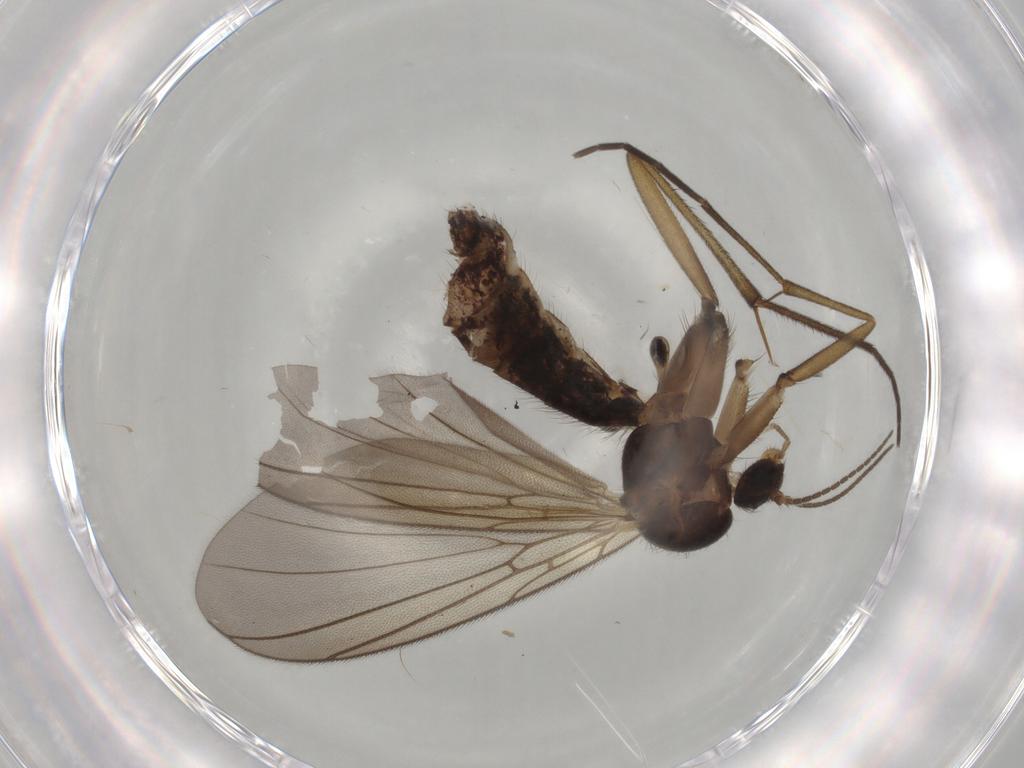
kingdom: Animalia
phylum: Arthropoda
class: Insecta
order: Diptera
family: Mycetophilidae
